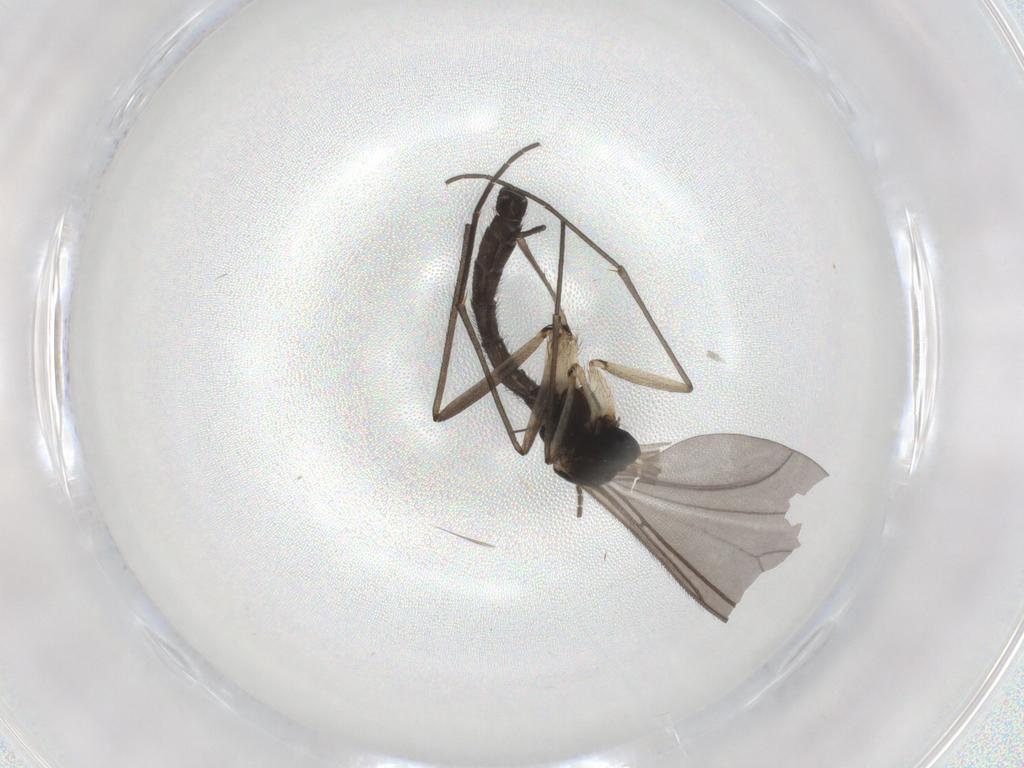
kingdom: Animalia
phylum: Arthropoda
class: Insecta
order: Diptera
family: Sciaridae
